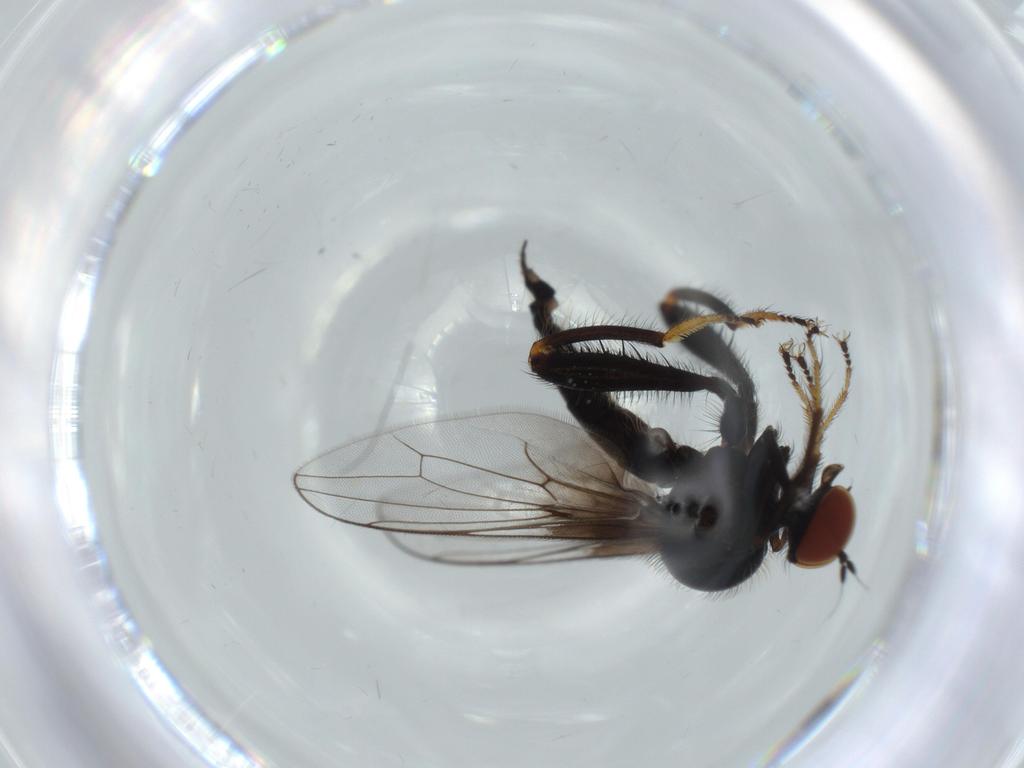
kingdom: Animalia
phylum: Arthropoda
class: Insecta
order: Diptera
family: Hybotidae
